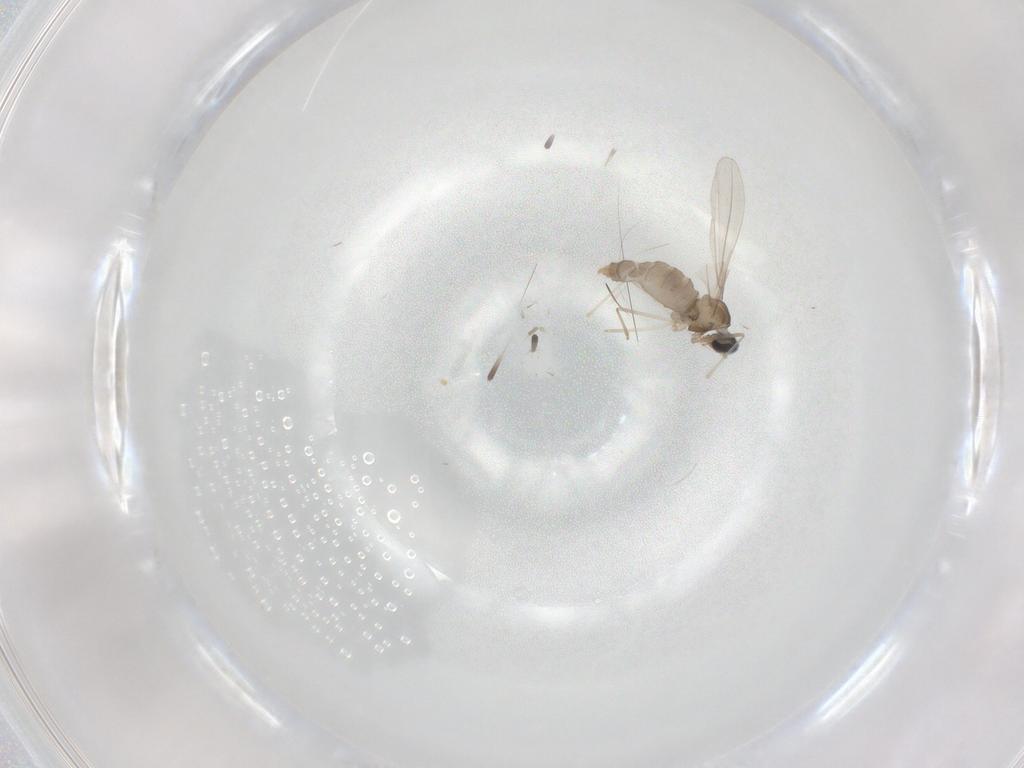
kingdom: Animalia
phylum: Arthropoda
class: Insecta
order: Diptera
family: Cecidomyiidae
